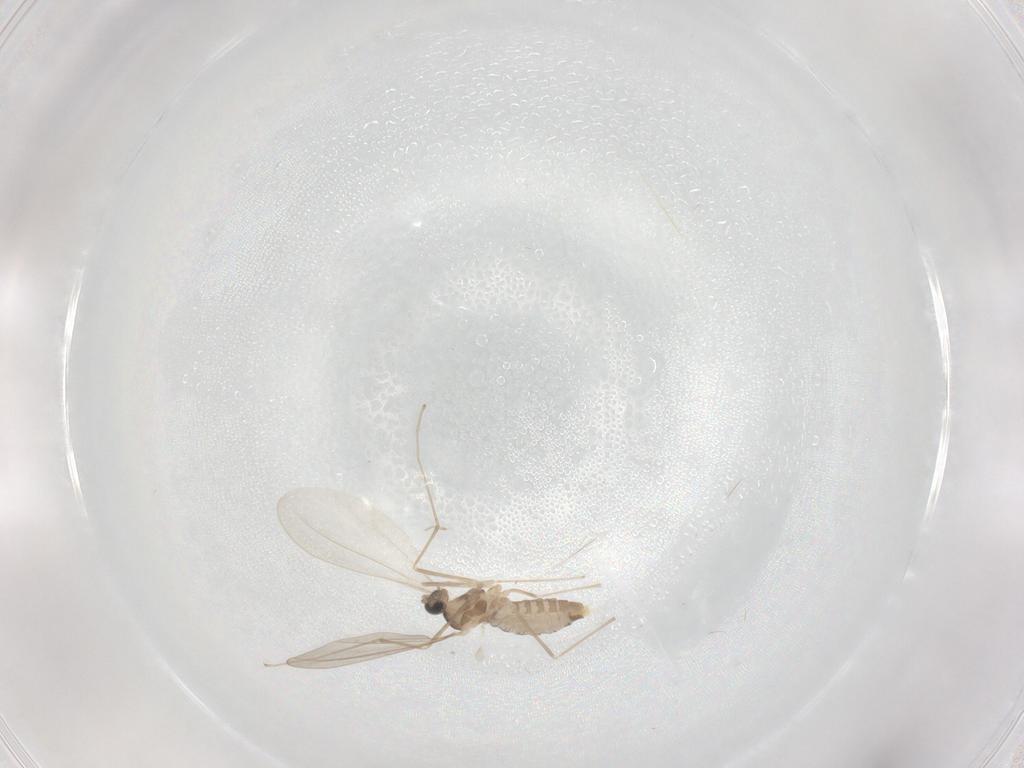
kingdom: Animalia
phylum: Arthropoda
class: Insecta
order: Diptera
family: Cecidomyiidae
